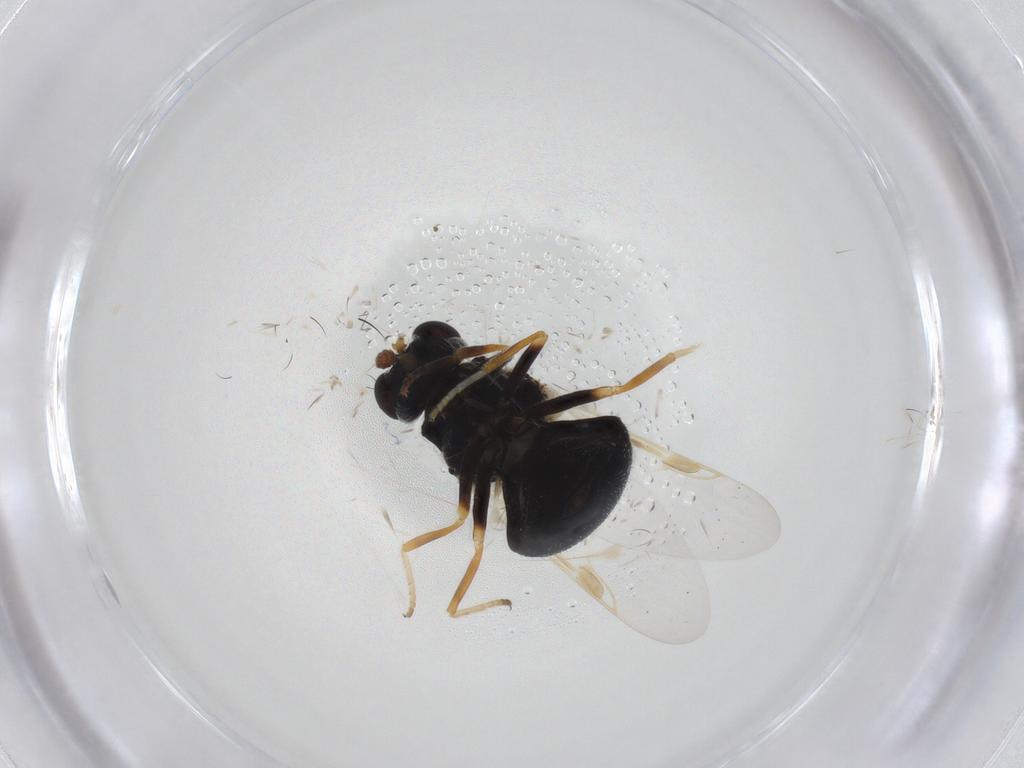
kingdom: Animalia
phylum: Arthropoda
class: Insecta
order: Diptera
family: Stratiomyidae
